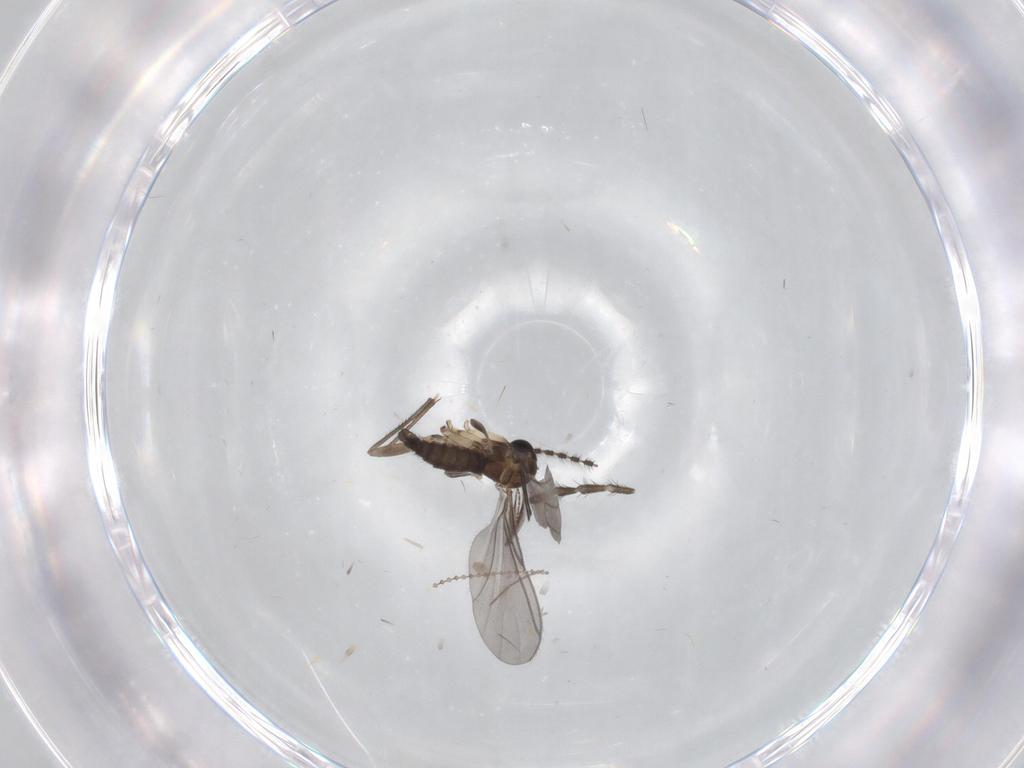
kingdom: Animalia
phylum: Arthropoda
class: Insecta
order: Diptera
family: Sciaridae
